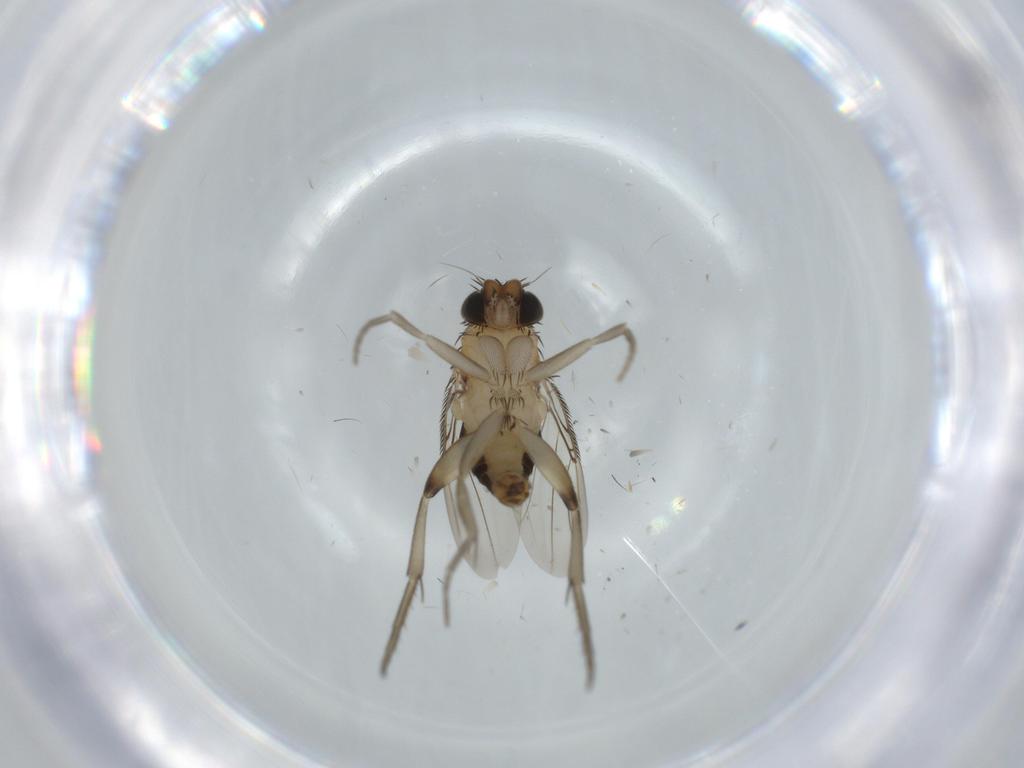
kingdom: Animalia
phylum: Arthropoda
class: Insecta
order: Diptera
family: Phoridae
